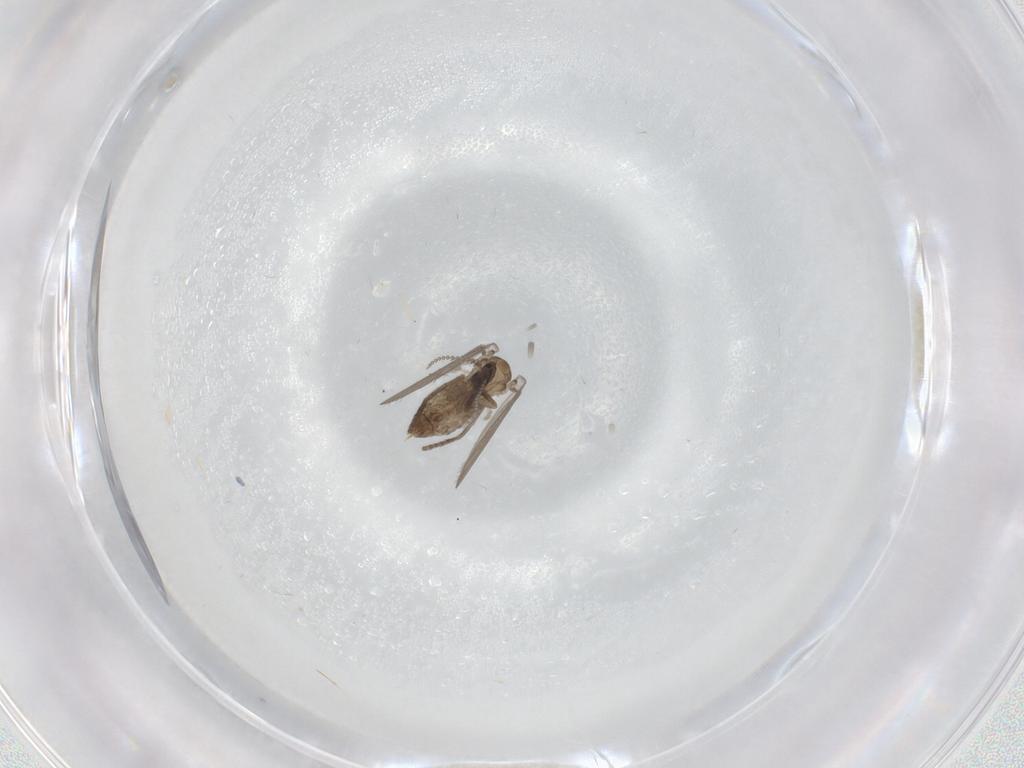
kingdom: Animalia
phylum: Arthropoda
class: Insecta
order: Diptera
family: Psychodidae
